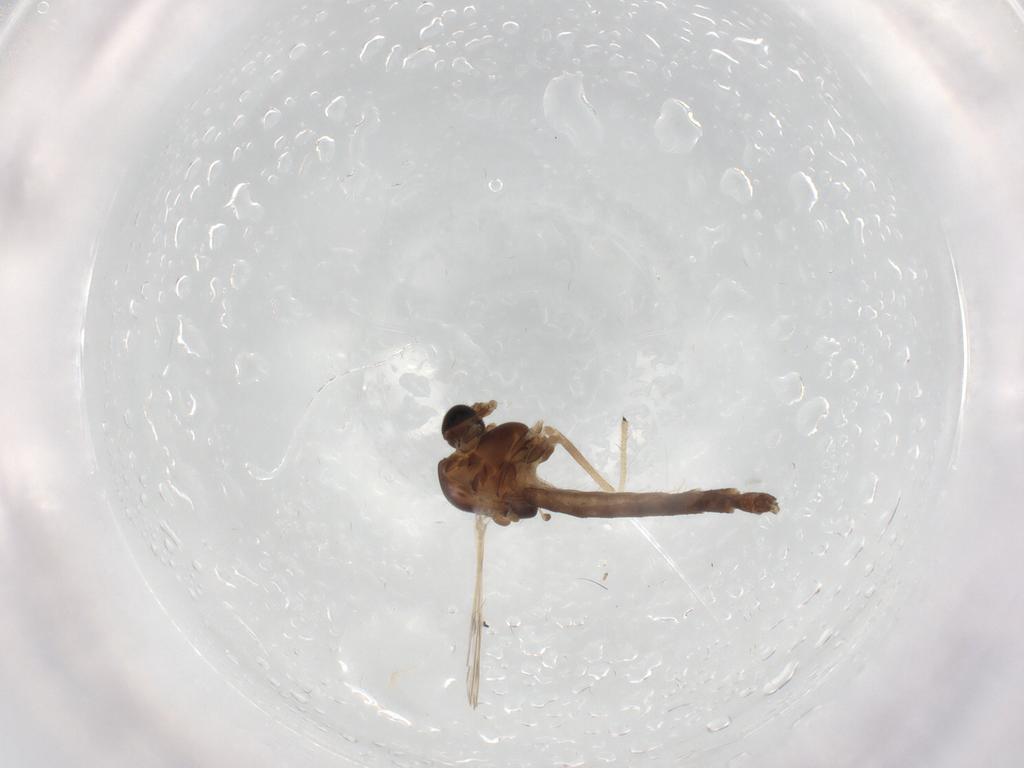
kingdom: Animalia
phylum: Arthropoda
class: Insecta
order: Diptera
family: Chironomidae
